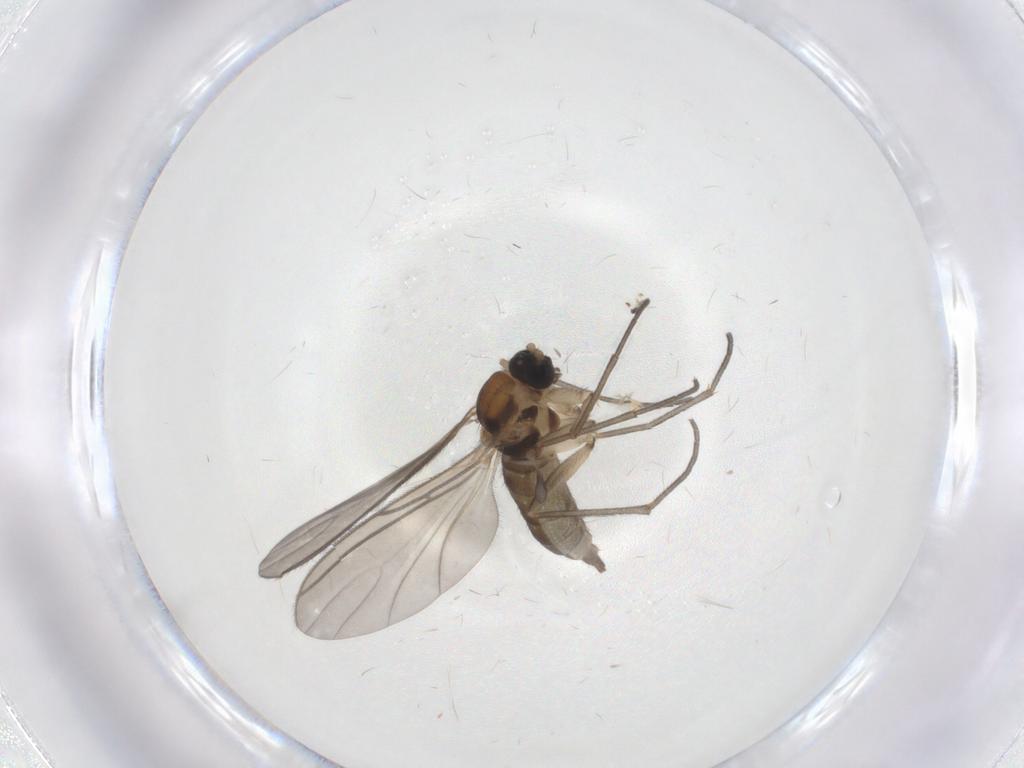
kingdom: Animalia
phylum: Arthropoda
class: Insecta
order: Diptera
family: Sciaridae
